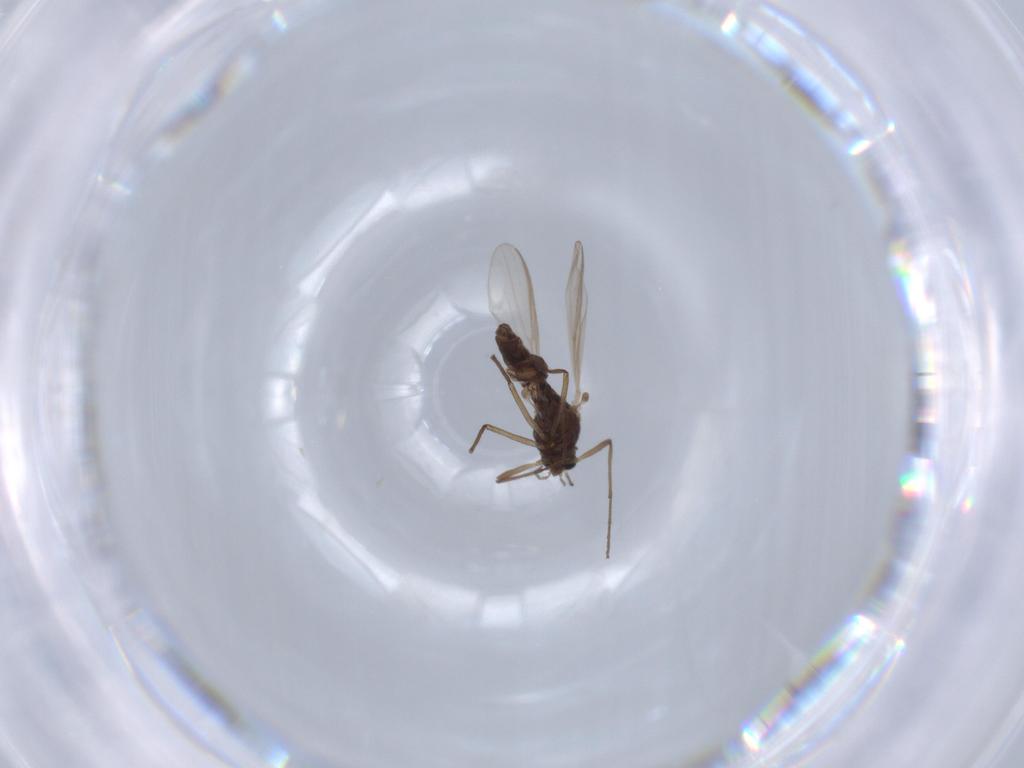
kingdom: Animalia
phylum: Arthropoda
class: Insecta
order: Diptera
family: Chironomidae
